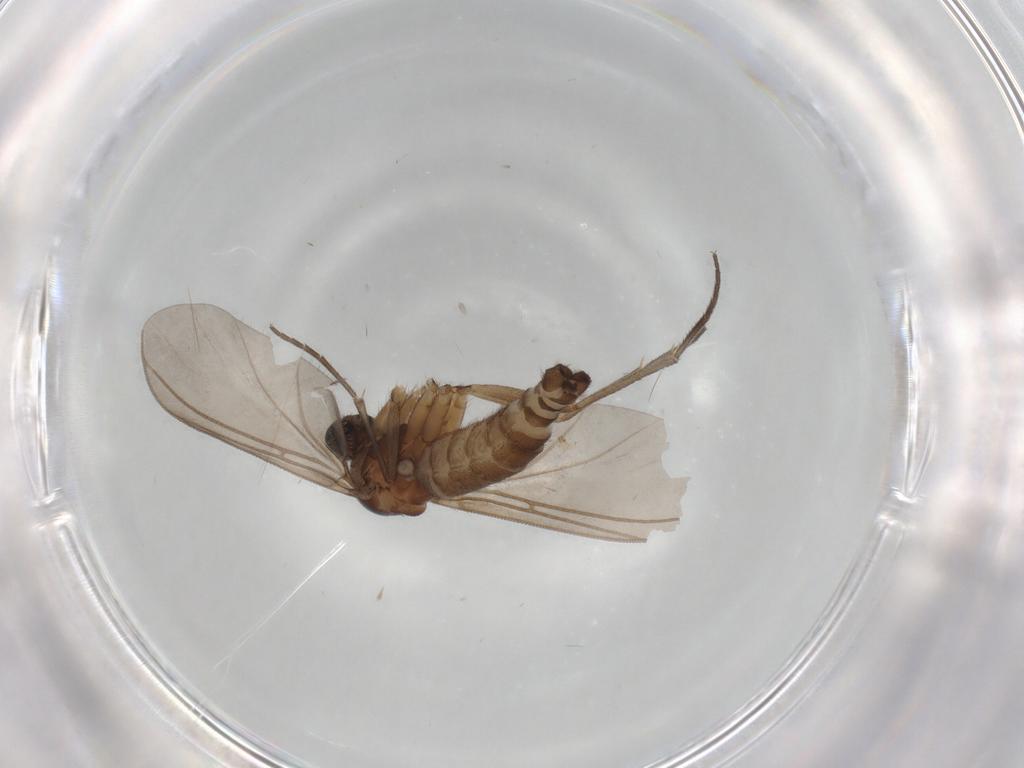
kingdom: Animalia
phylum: Arthropoda
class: Insecta
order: Diptera
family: Sciaridae
